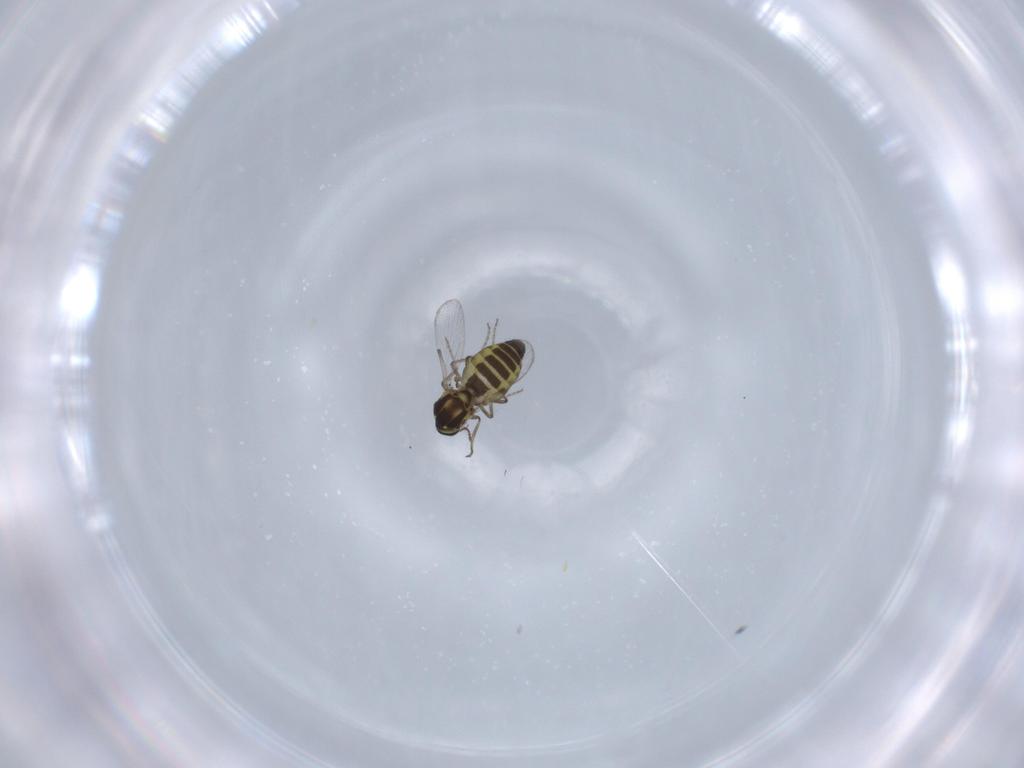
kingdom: Animalia
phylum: Arthropoda
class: Insecta
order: Diptera
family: Ceratopogonidae
